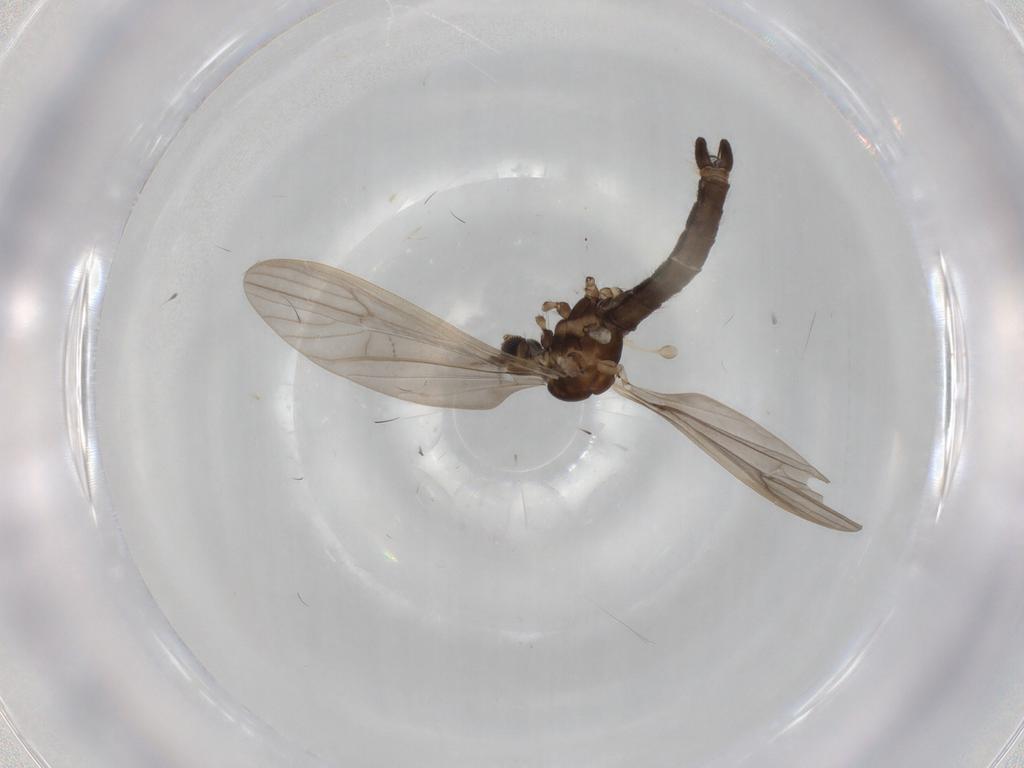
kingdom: Animalia
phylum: Arthropoda
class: Insecta
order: Diptera
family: Limoniidae
